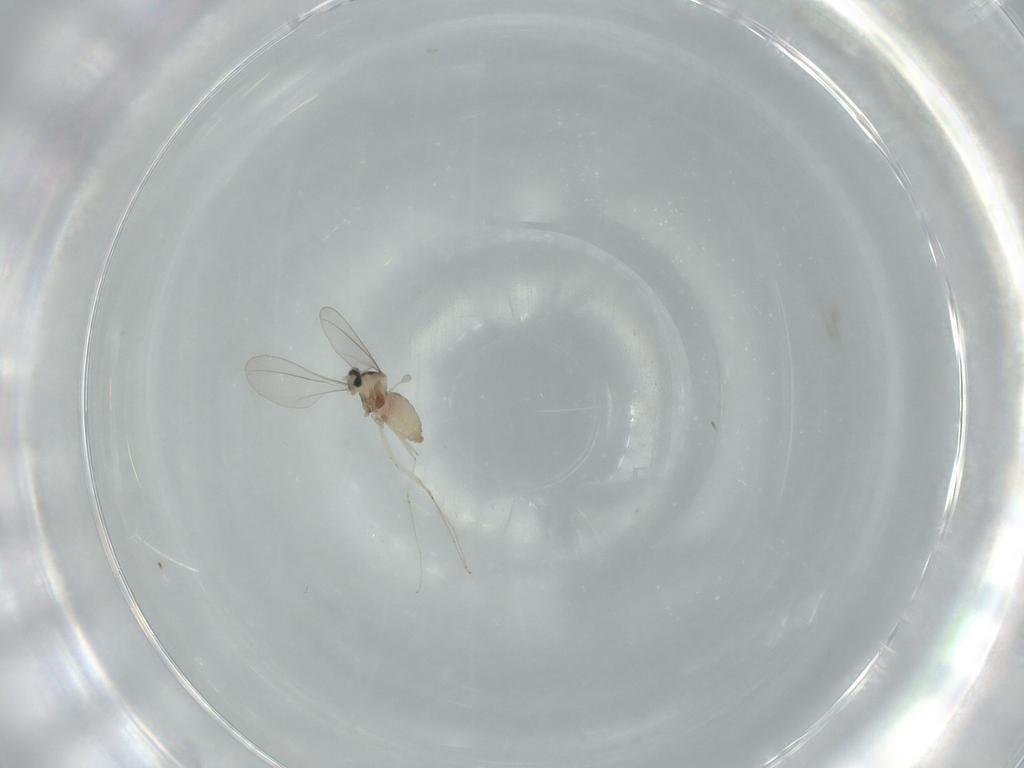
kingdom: Animalia
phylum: Arthropoda
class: Insecta
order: Diptera
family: Cecidomyiidae
